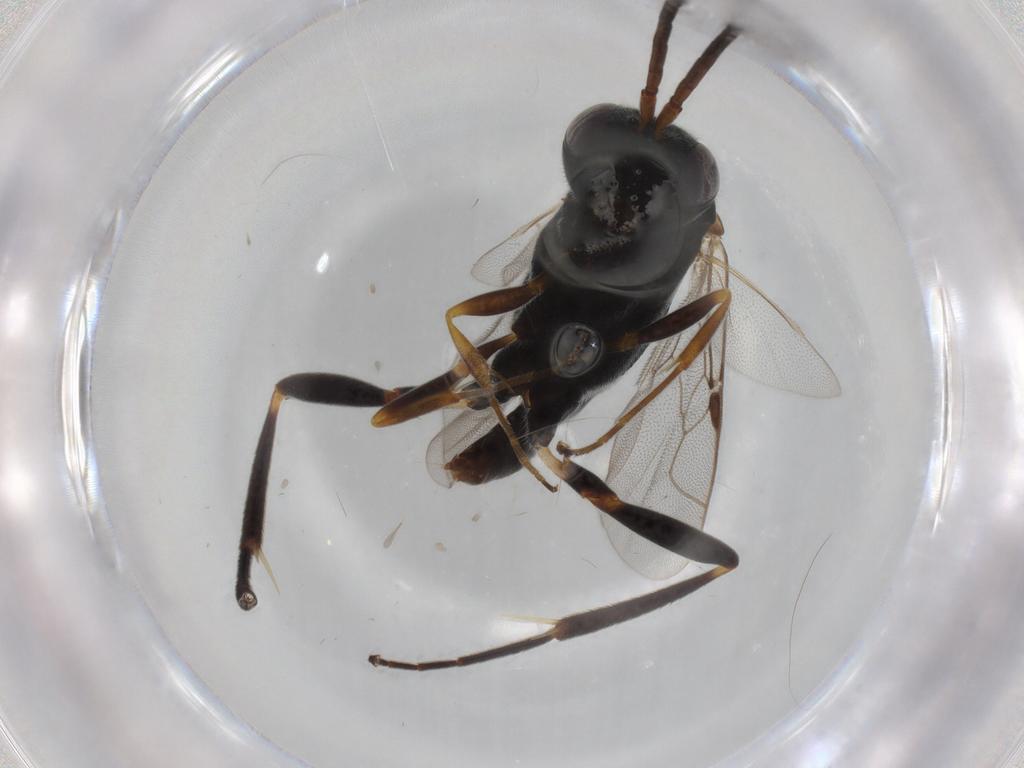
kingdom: Animalia
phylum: Arthropoda
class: Insecta
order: Hymenoptera
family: Evaniidae
